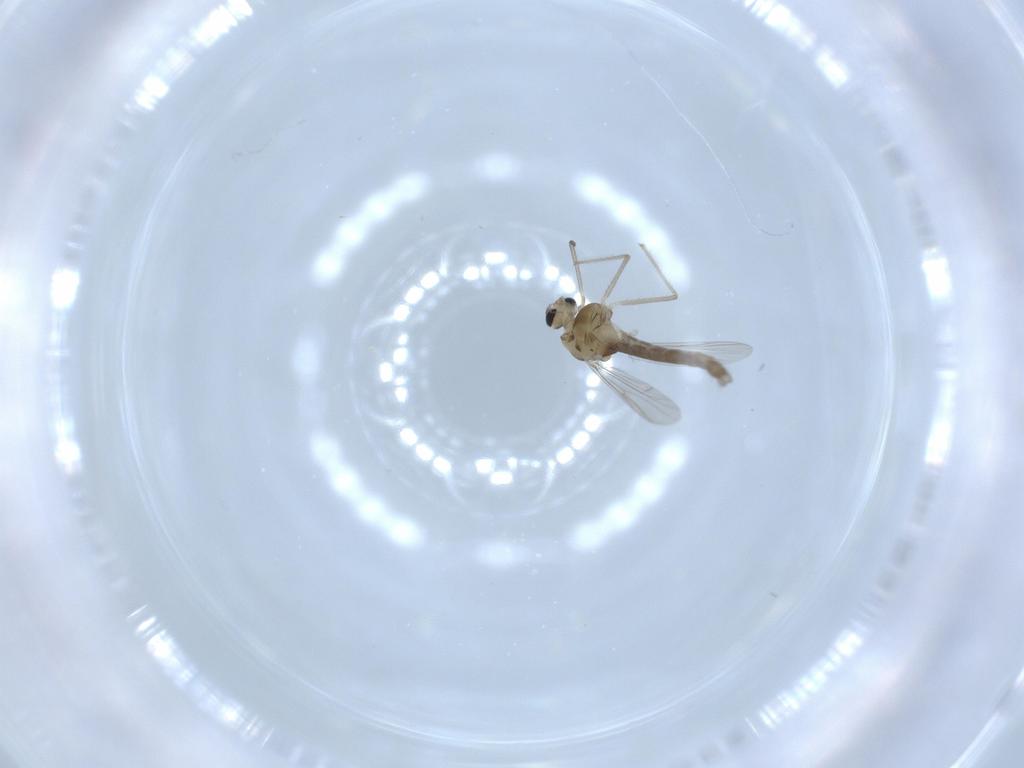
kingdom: Animalia
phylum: Arthropoda
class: Insecta
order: Diptera
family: Chironomidae
